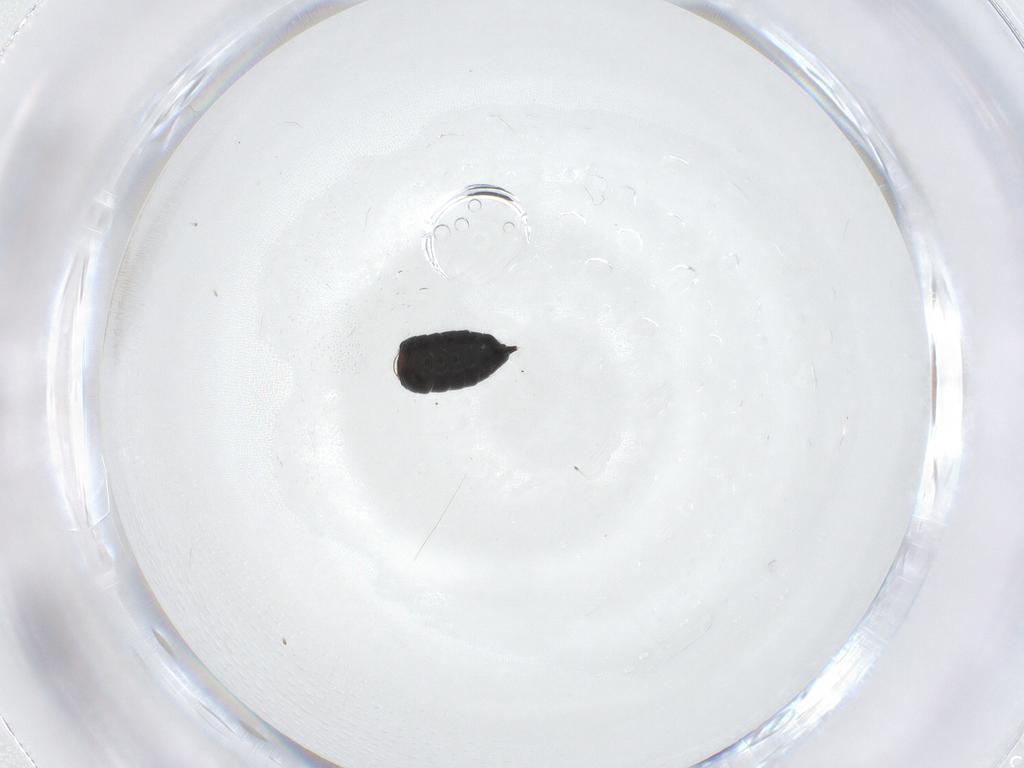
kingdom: Animalia
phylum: Arthropoda
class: Insecta
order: Diptera
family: Psychodidae
